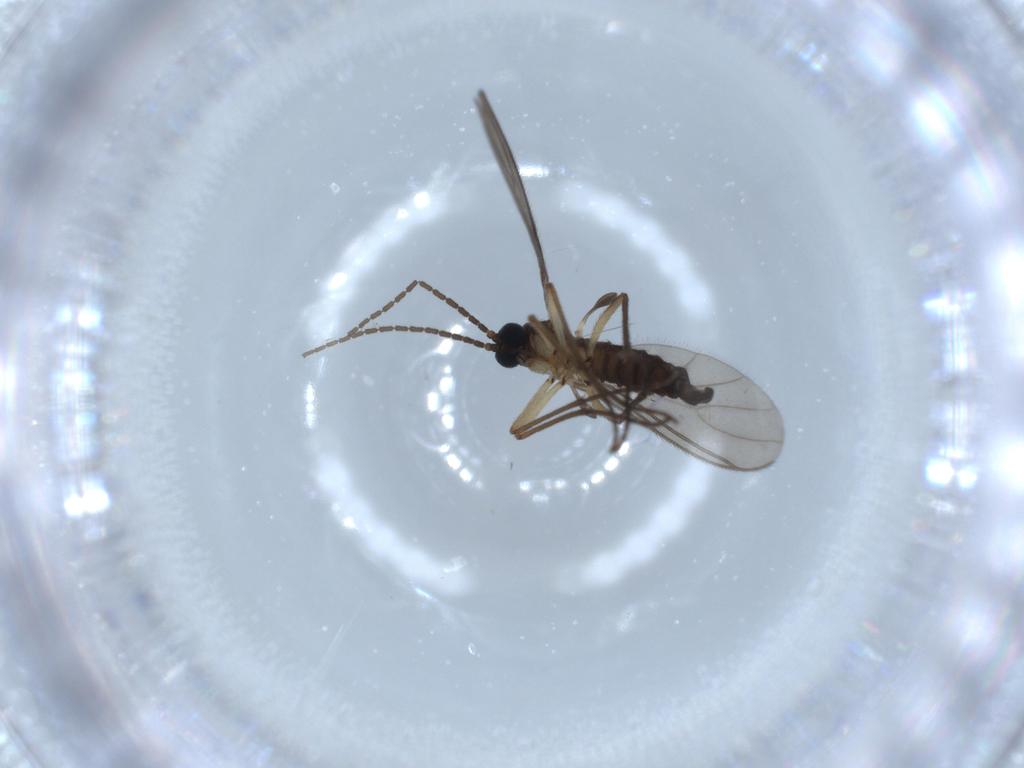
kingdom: Animalia
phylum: Arthropoda
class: Insecta
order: Diptera
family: Sciaridae
